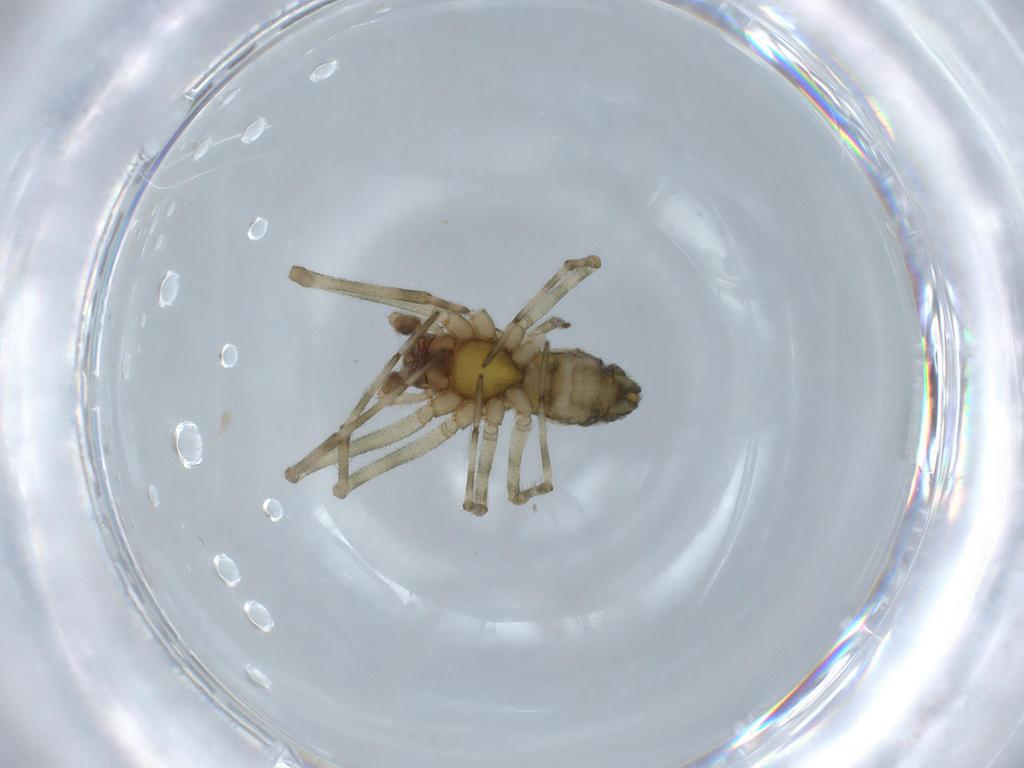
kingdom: Animalia
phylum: Arthropoda
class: Arachnida
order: Araneae
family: Dictynidae
